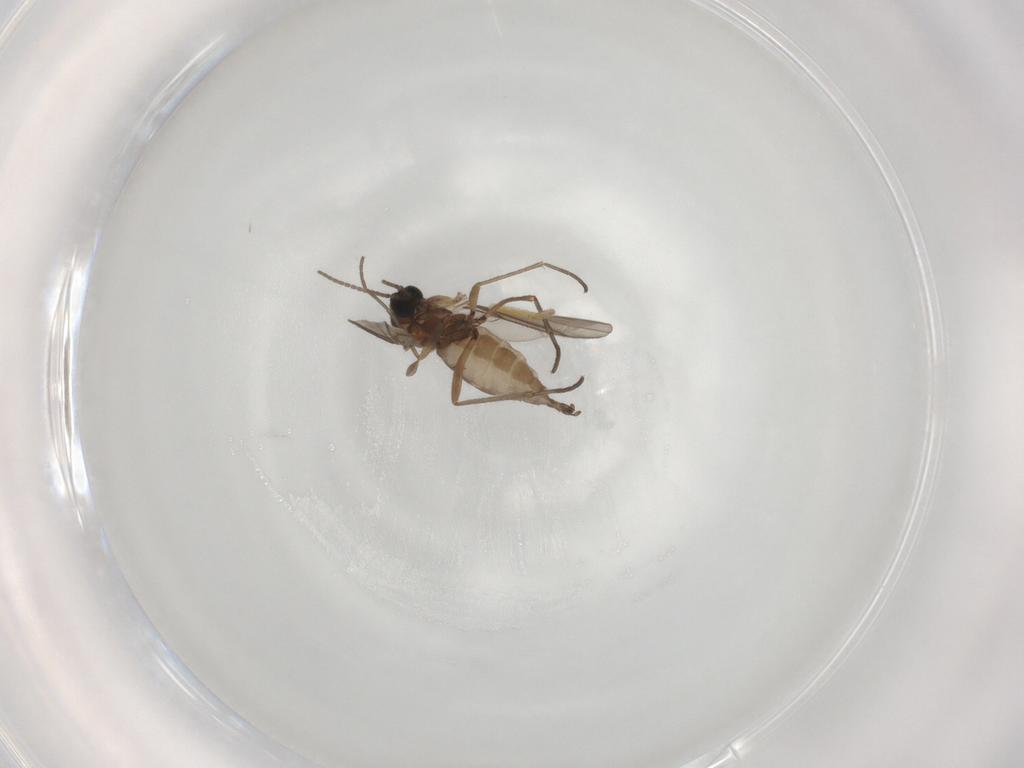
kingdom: Animalia
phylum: Arthropoda
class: Insecta
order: Diptera
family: Sciaridae
